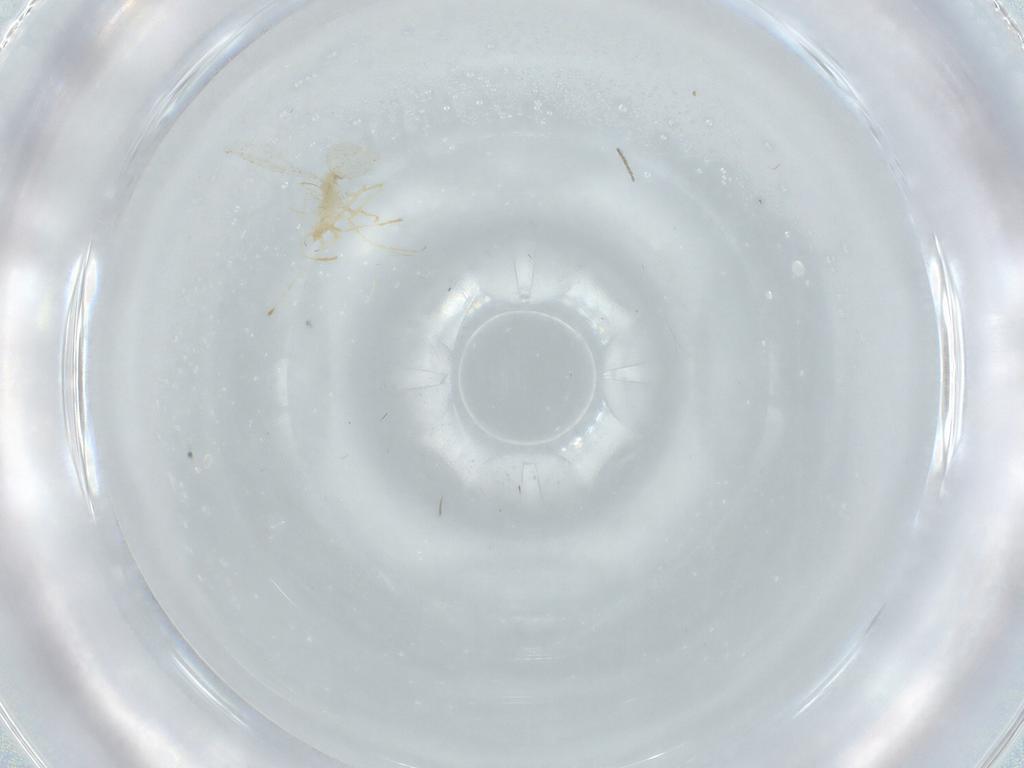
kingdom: Animalia
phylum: Arthropoda
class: Insecta
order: Diptera
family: Cecidomyiidae
